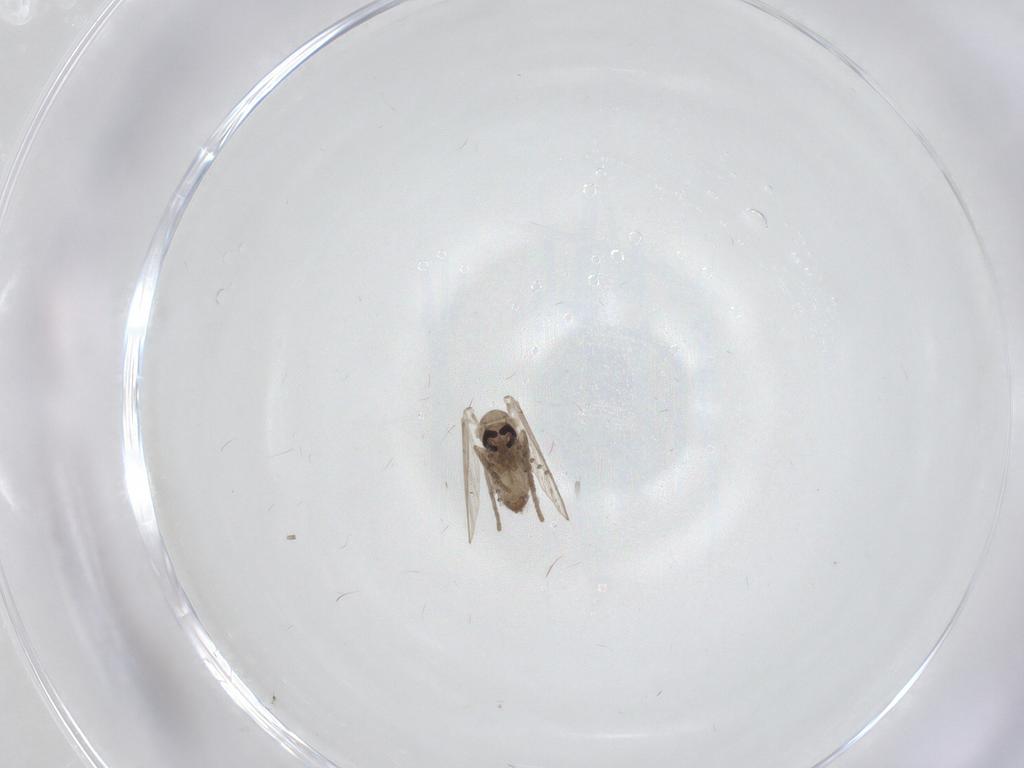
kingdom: Animalia
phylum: Arthropoda
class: Insecta
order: Diptera
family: Psychodidae
